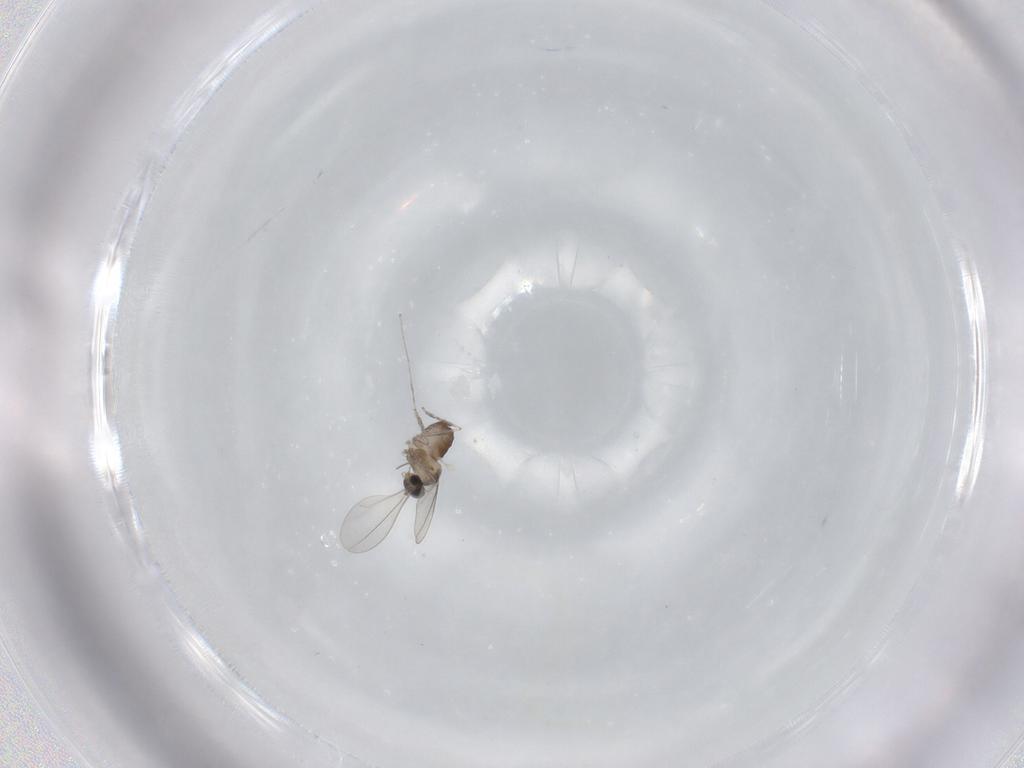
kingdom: Animalia
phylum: Arthropoda
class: Insecta
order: Diptera
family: Cecidomyiidae
